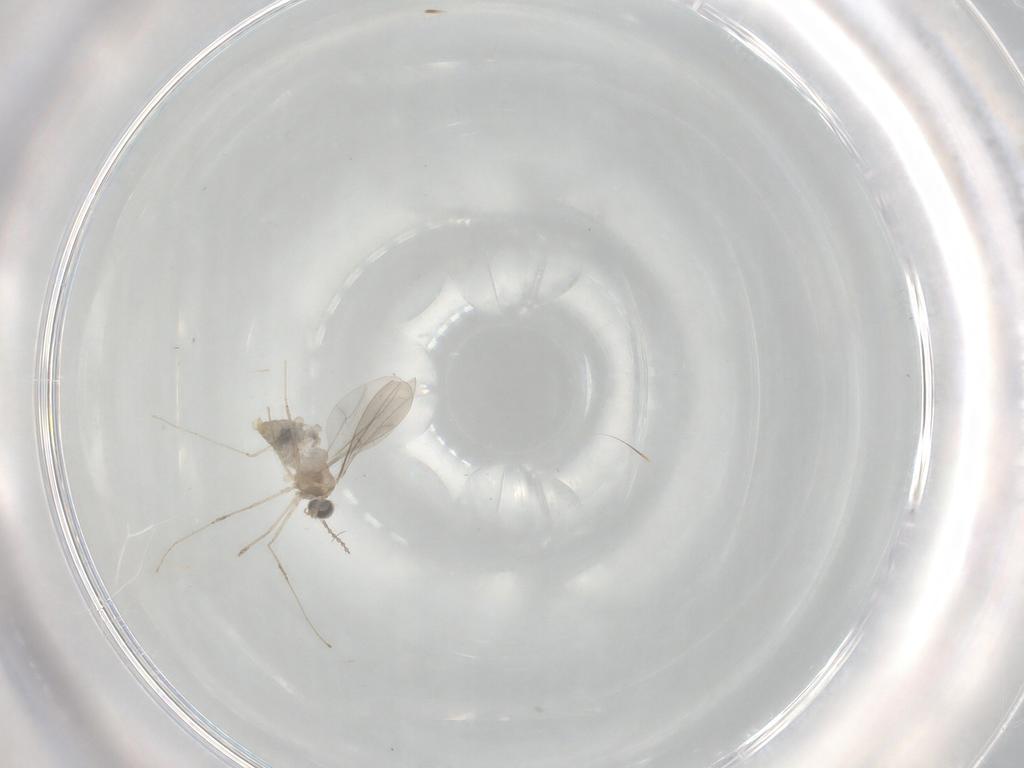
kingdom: Animalia
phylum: Arthropoda
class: Insecta
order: Diptera
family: Cecidomyiidae
